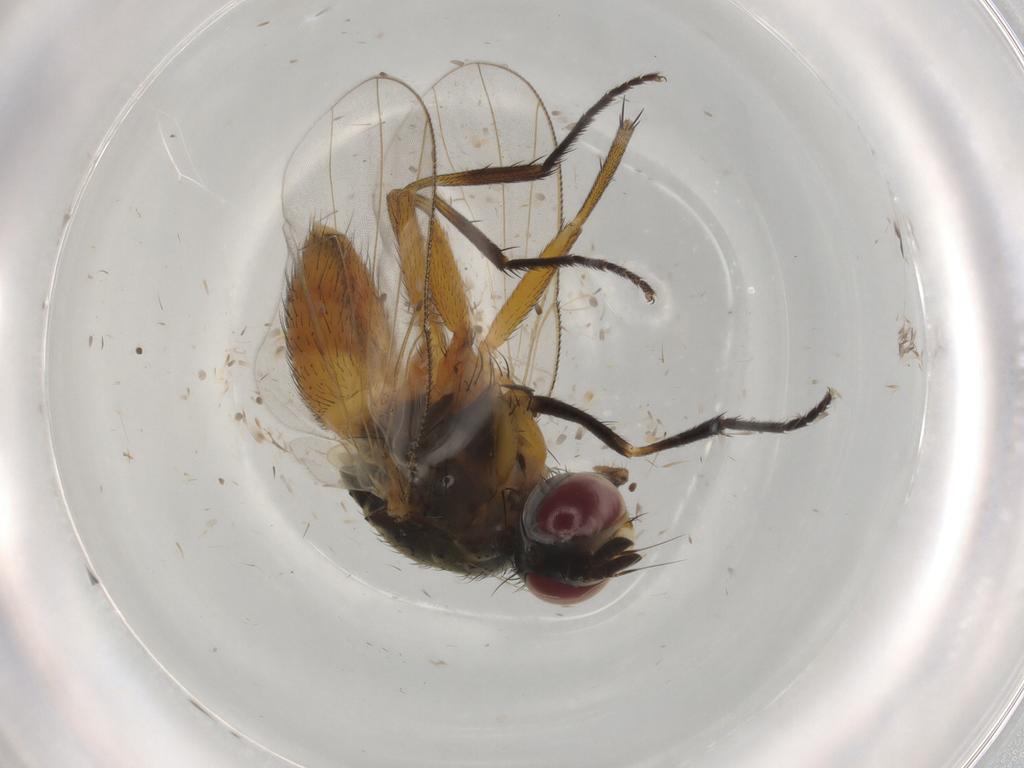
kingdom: Animalia
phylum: Arthropoda
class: Insecta
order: Diptera
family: Muscidae
